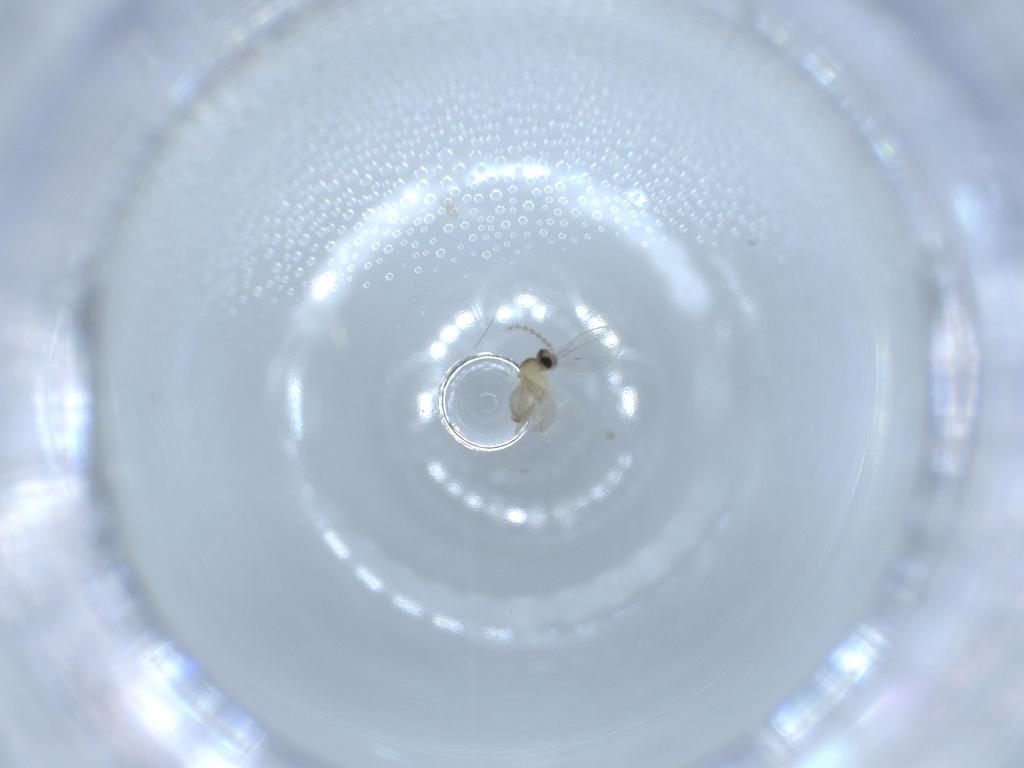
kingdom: Animalia
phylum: Arthropoda
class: Insecta
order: Diptera
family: Cecidomyiidae
